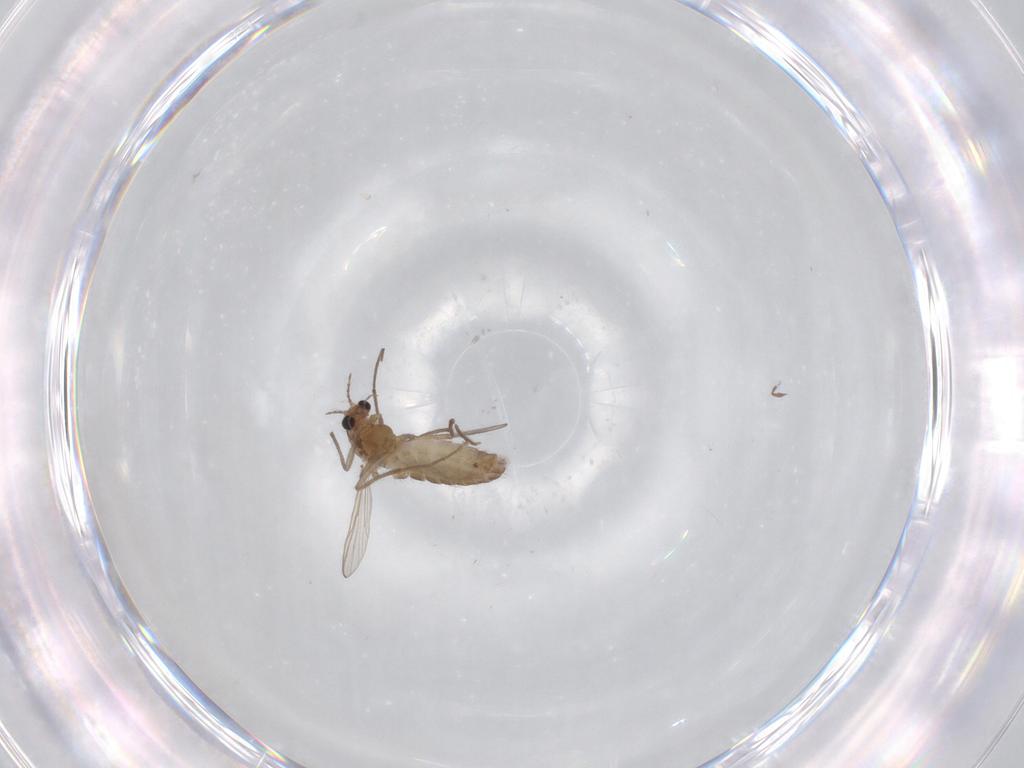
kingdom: Animalia
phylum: Arthropoda
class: Insecta
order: Diptera
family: Chironomidae
